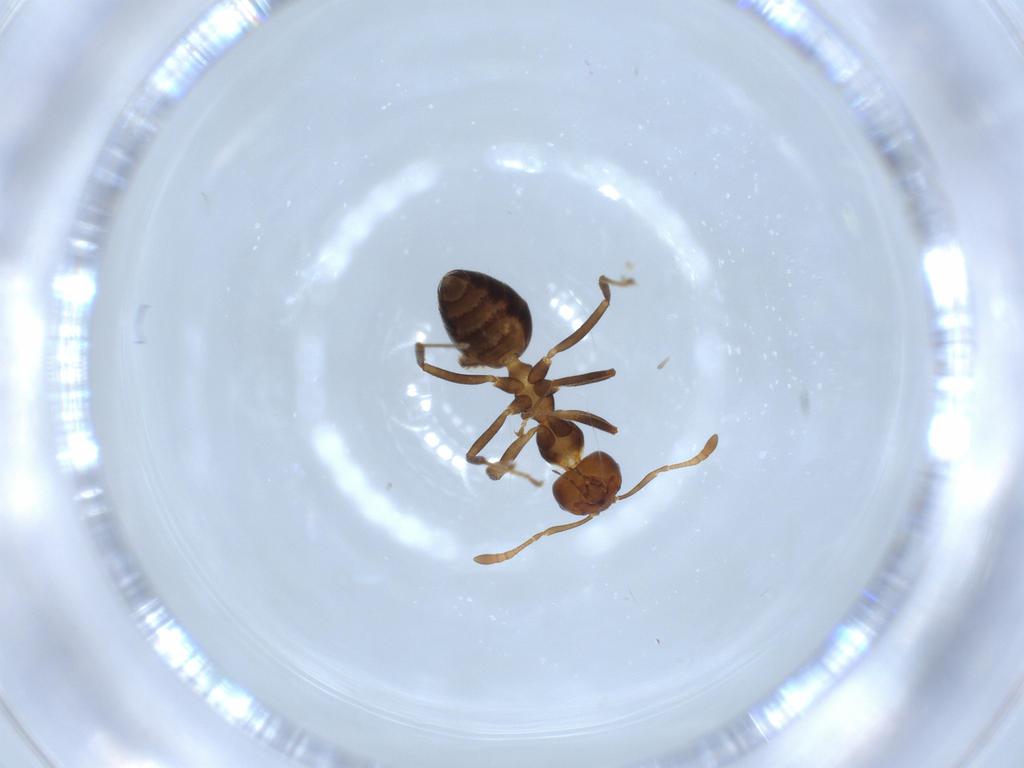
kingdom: Animalia
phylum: Arthropoda
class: Insecta
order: Hymenoptera
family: Formicidae
